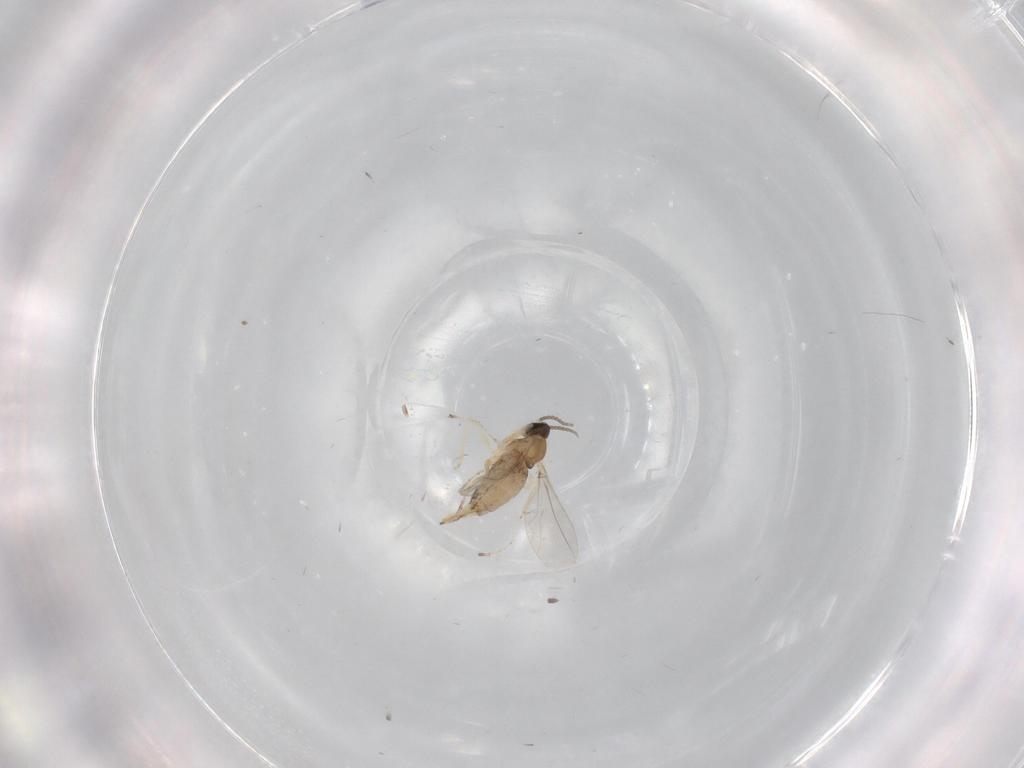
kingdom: Animalia
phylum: Arthropoda
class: Insecta
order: Diptera
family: Cecidomyiidae
